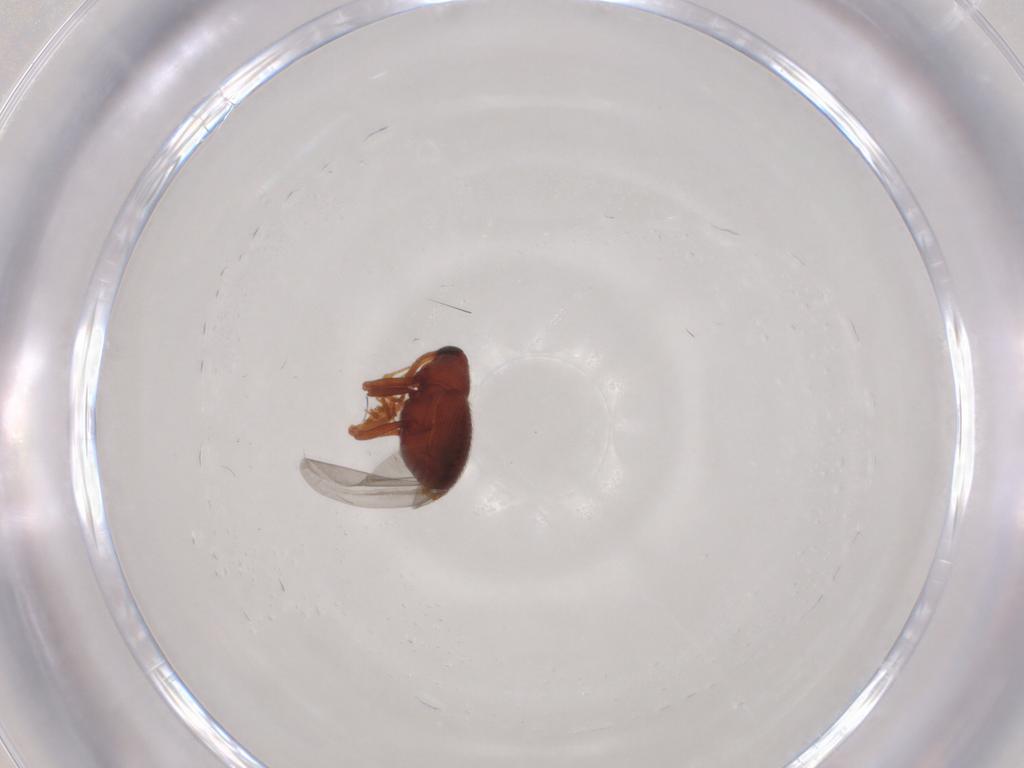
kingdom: Animalia
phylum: Arthropoda
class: Insecta
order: Coleoptera
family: Curculionidae
